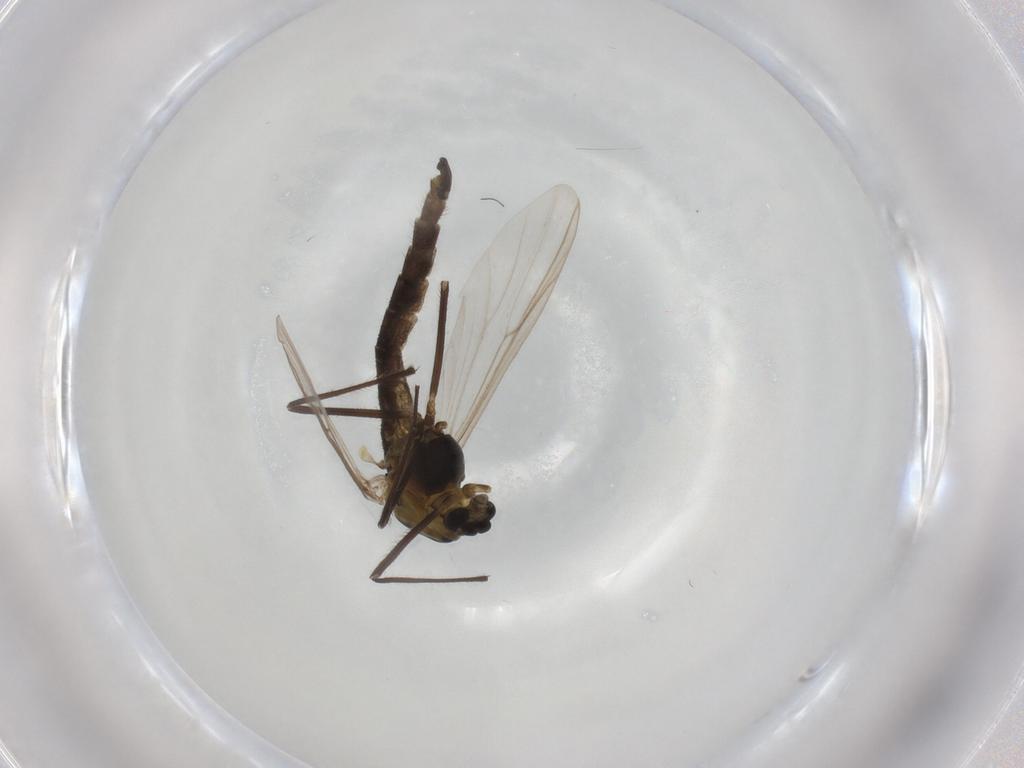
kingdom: Animalia
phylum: Arthropoda
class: Insecta
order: Diptera
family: Chironomidae
